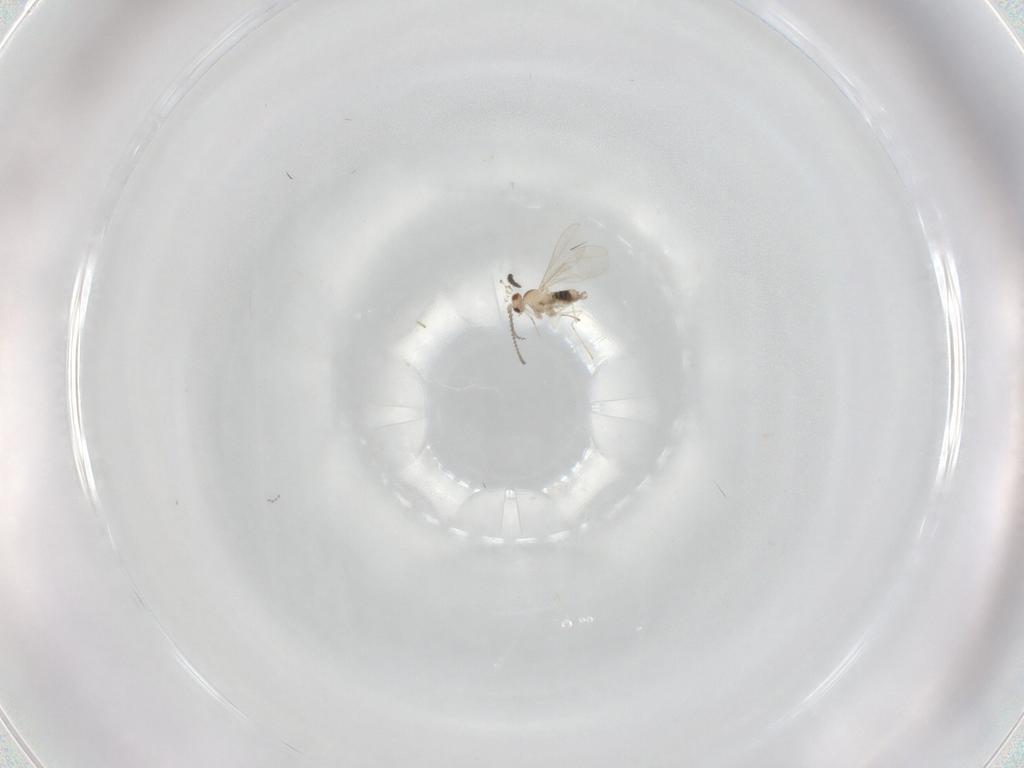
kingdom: Animalia
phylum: Arthropoda
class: Insecta
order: Diptera
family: Cecidomyiidae
